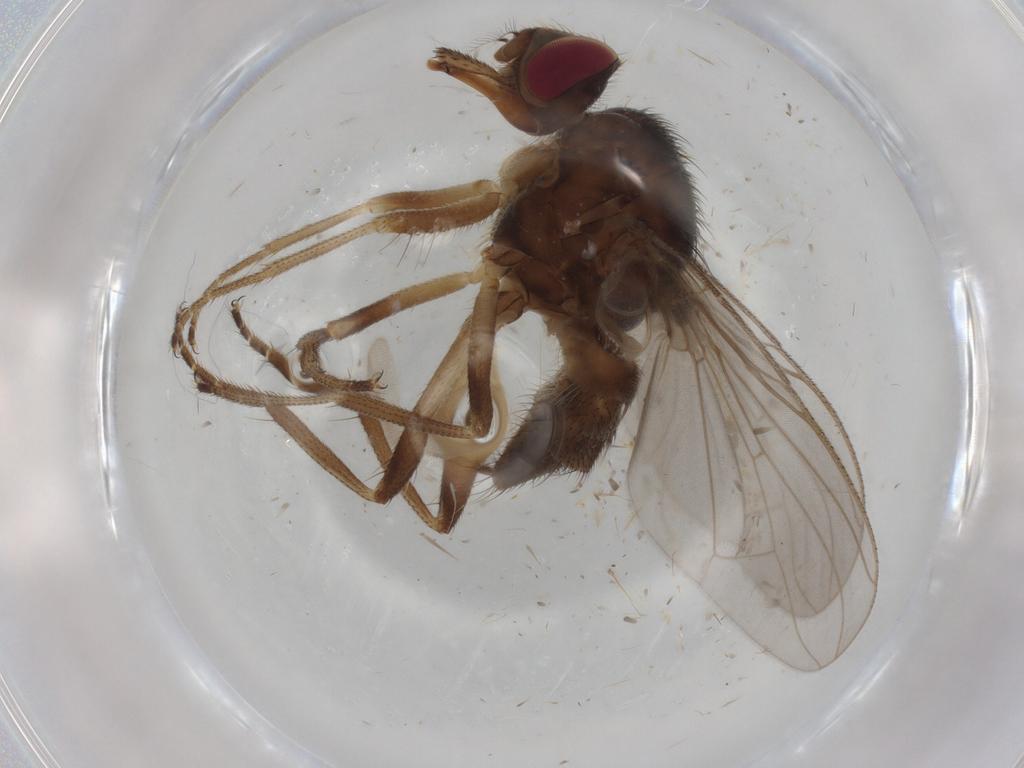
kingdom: Animalia
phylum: Arthropoda
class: Insecta
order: Diptera
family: Muscidae
